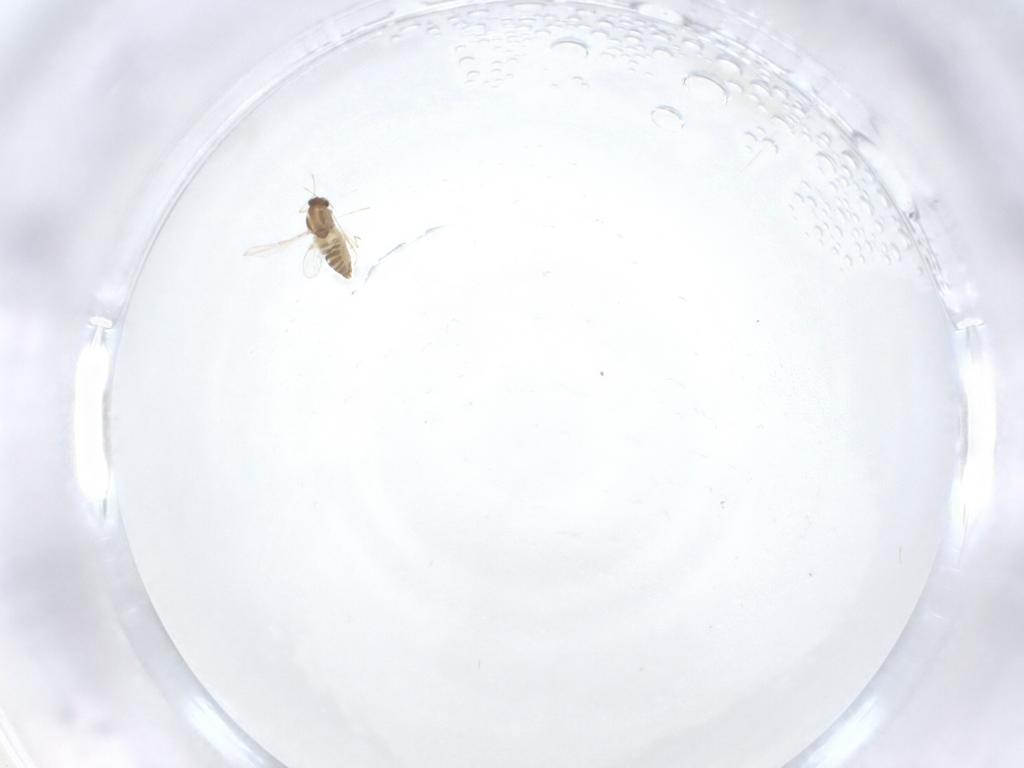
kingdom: Animalia
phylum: Arthropoda
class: Insecta
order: Diptera
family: Chironomidae
